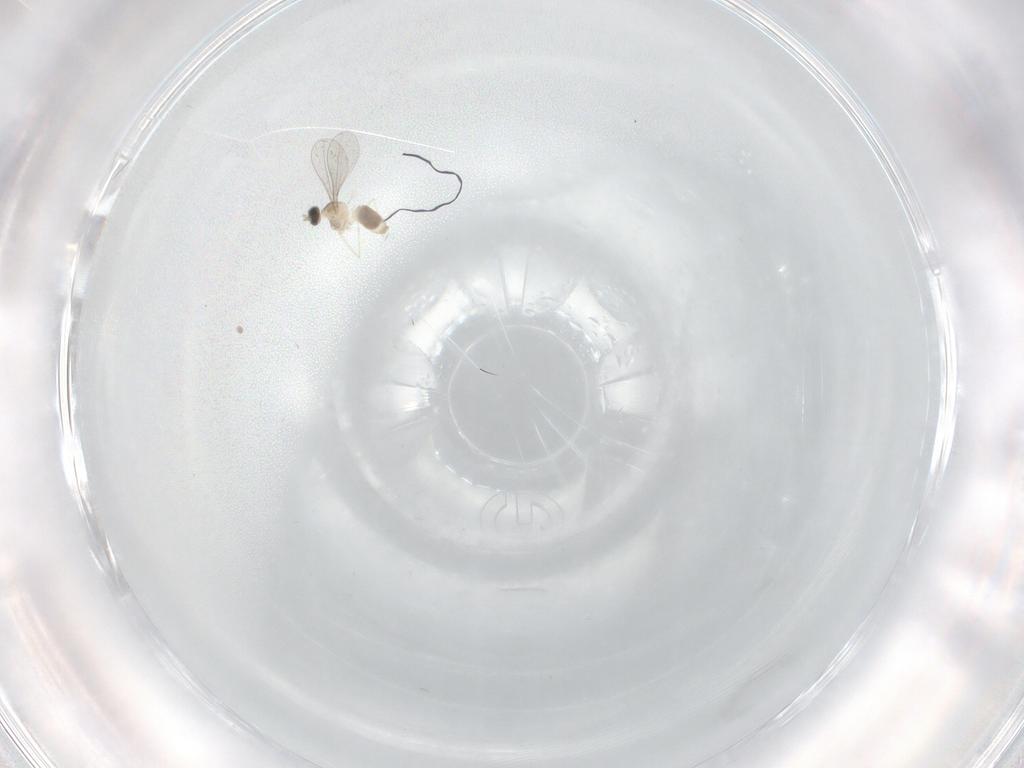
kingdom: Animalia
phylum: Arthropoda
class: Insecta
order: Diptera
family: Cecidomyiidae
